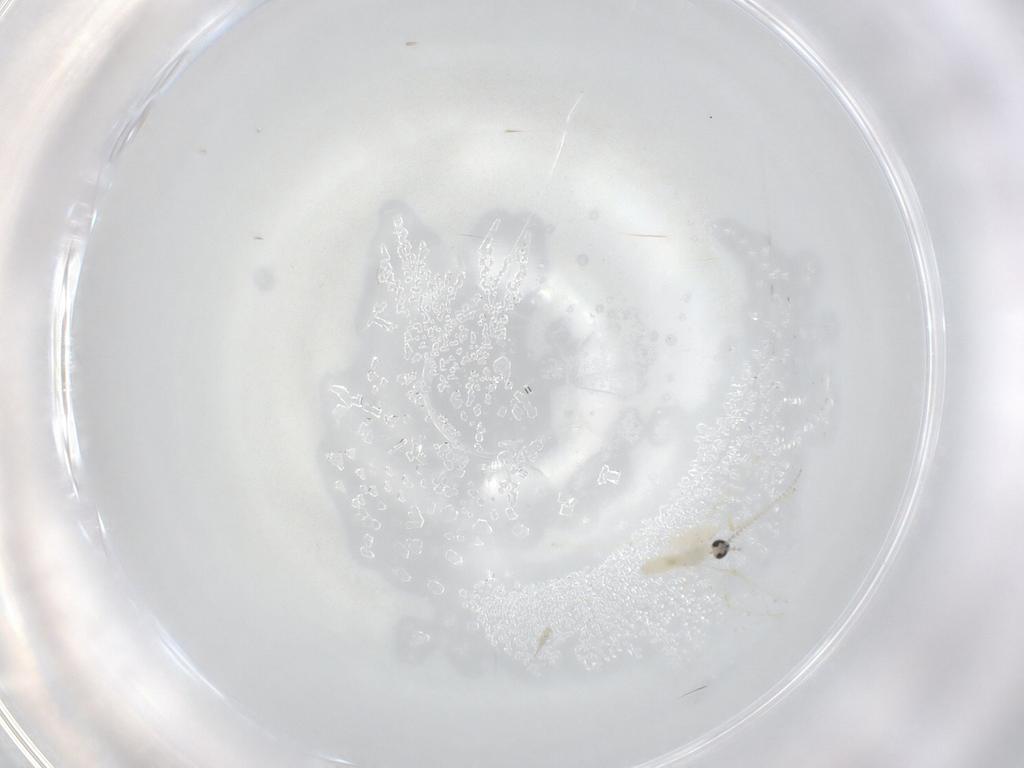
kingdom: Animalia
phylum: Arthropoda
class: Insecta
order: Diptera
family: Cecidomyiidae
